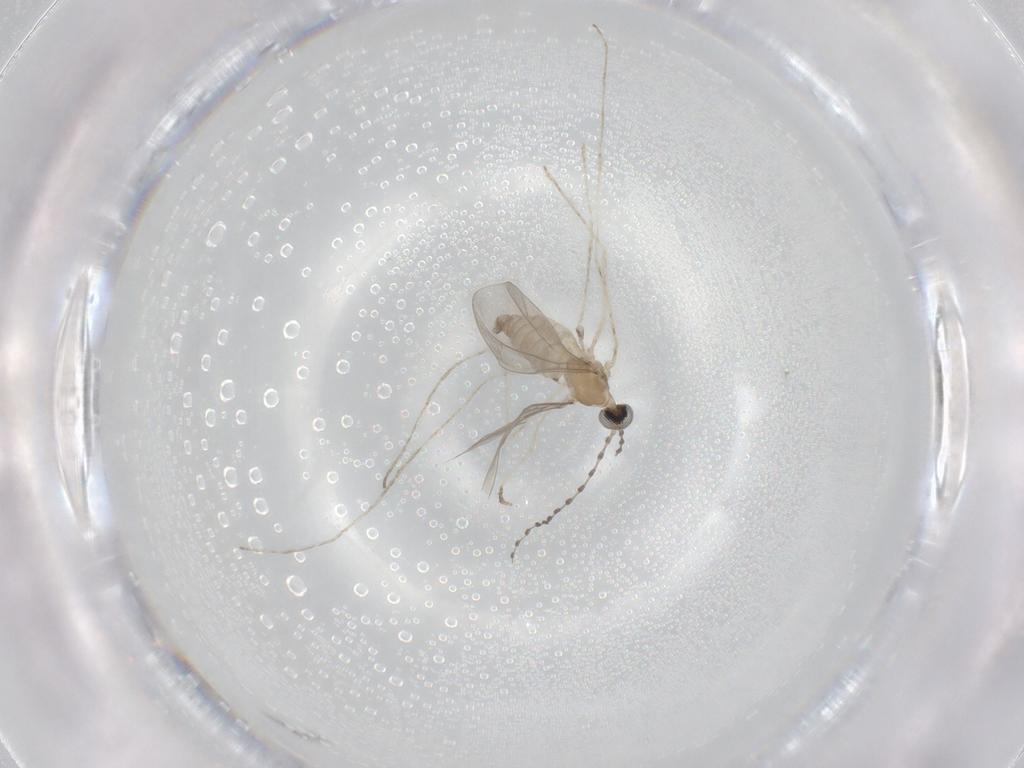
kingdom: Animalia
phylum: Arthropoda
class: Insecta
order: Diptera
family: Cecidomyiidae
